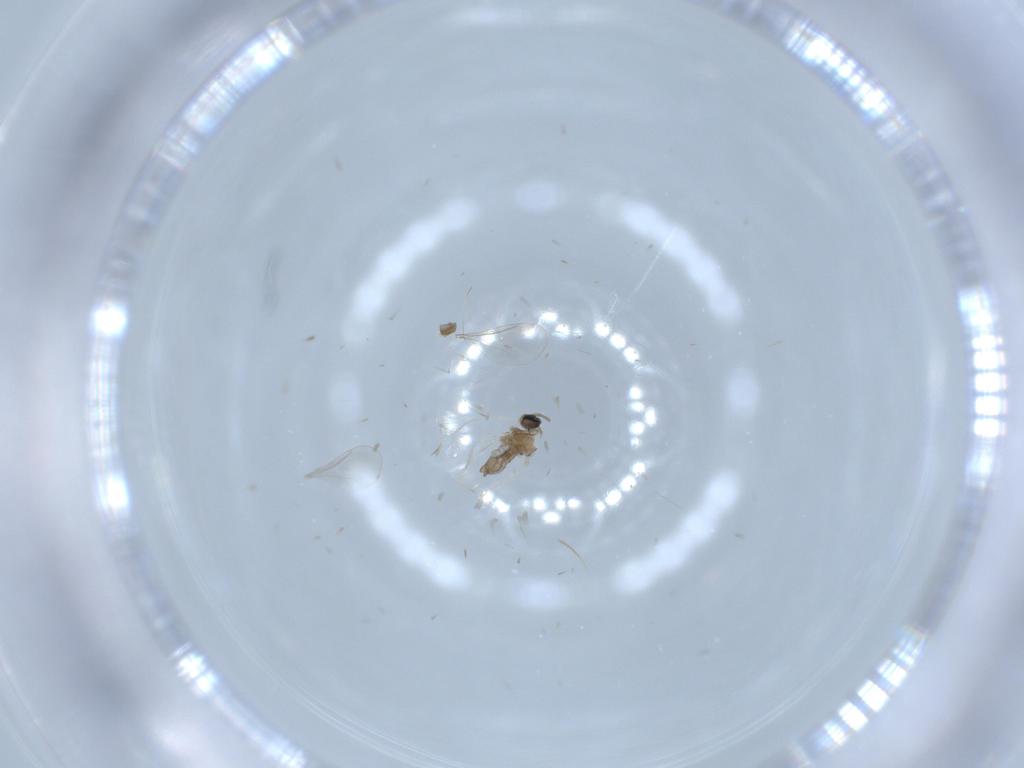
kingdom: Animalia
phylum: Arthropoda
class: Insecta
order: Diptera
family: Cecidomyiidae
